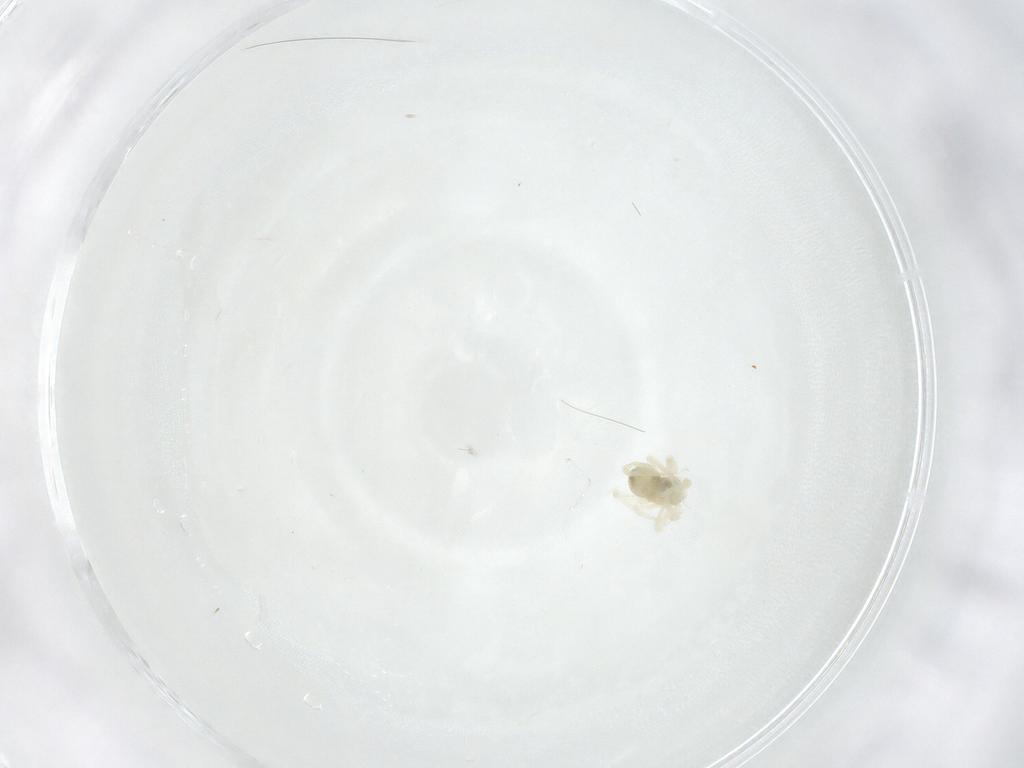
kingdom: Animalia
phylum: Arthropoda
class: Arachnida
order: Trombidiformes
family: Anystidae
